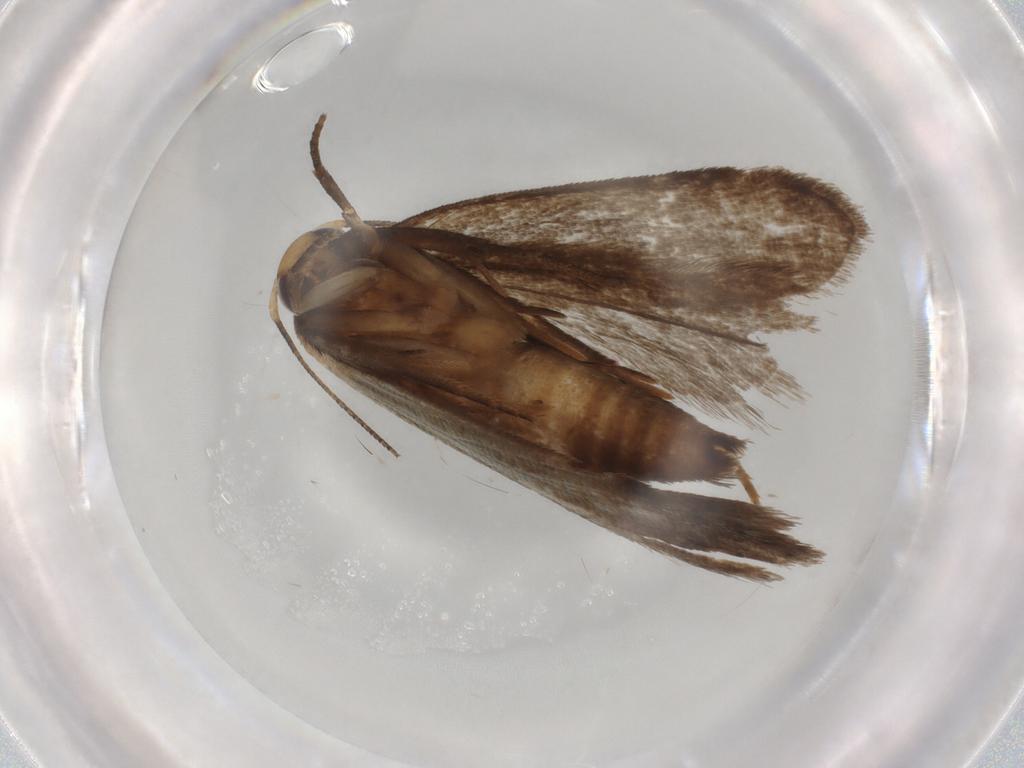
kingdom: Animalia
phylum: Arthropoda
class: Insecta
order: Lepidoptera
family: Gelechiidae
